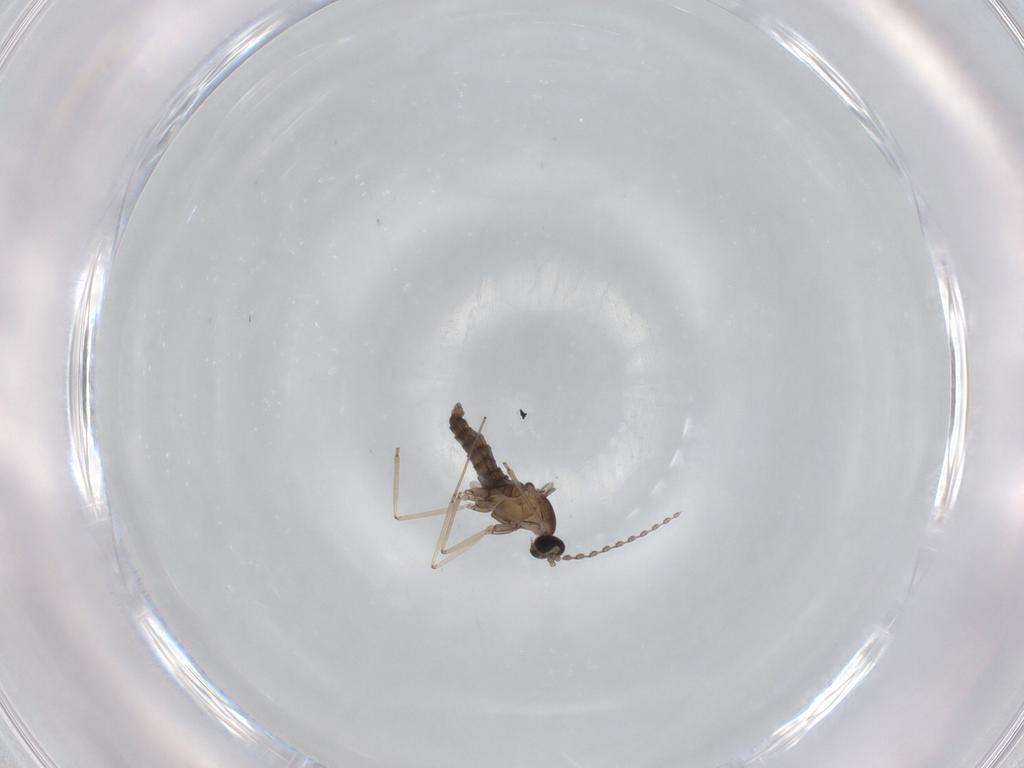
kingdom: Animalia
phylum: Arthropoda
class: Insecta
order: Diptera
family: Cecidomyiidae
